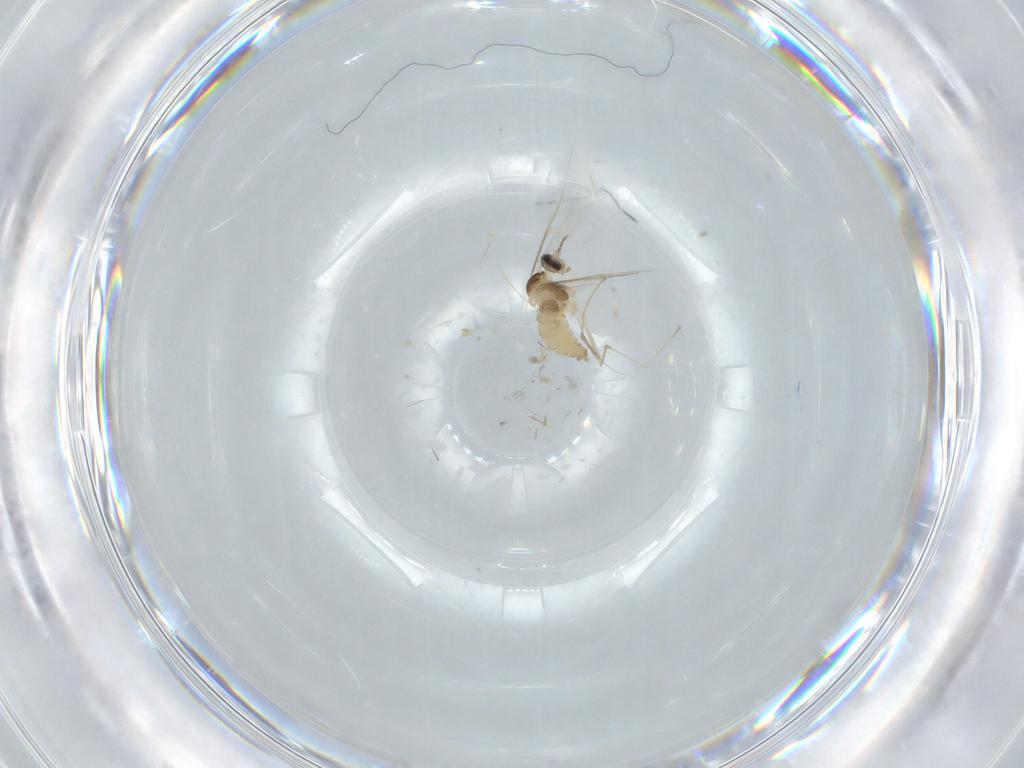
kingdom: Animalia
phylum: Arthropoda
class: Insecta
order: Diptera
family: Cecidomyiidae
